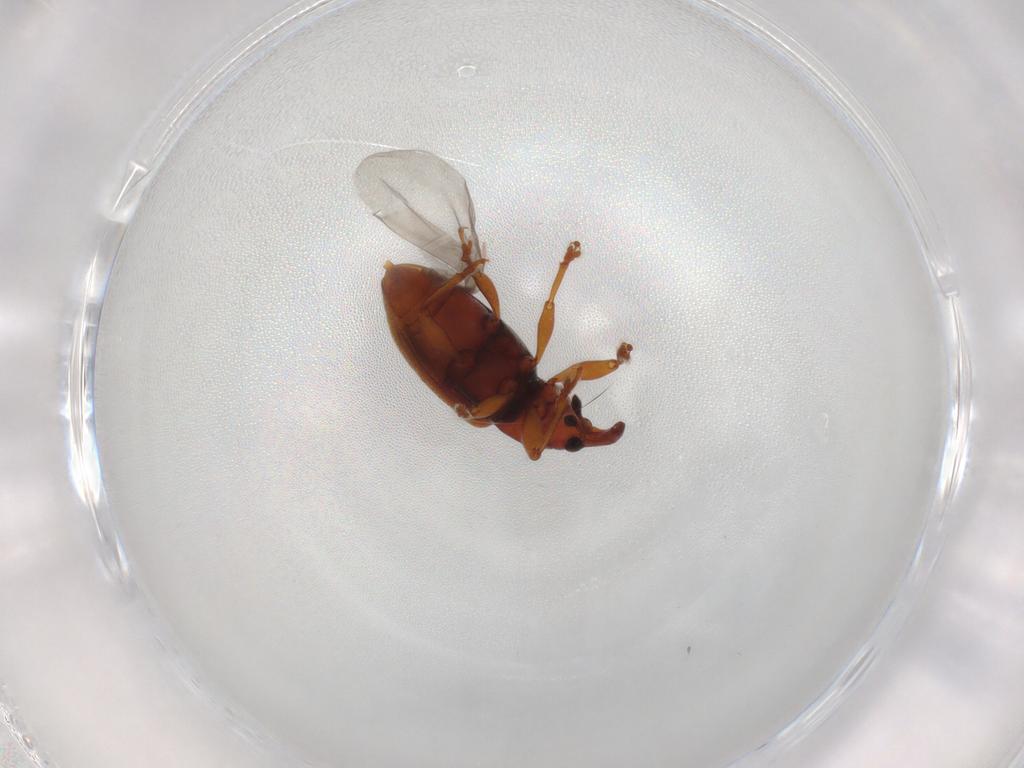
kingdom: Animalia
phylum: Arthropoda
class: Insecta
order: Coleoptera
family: Curculionidae
